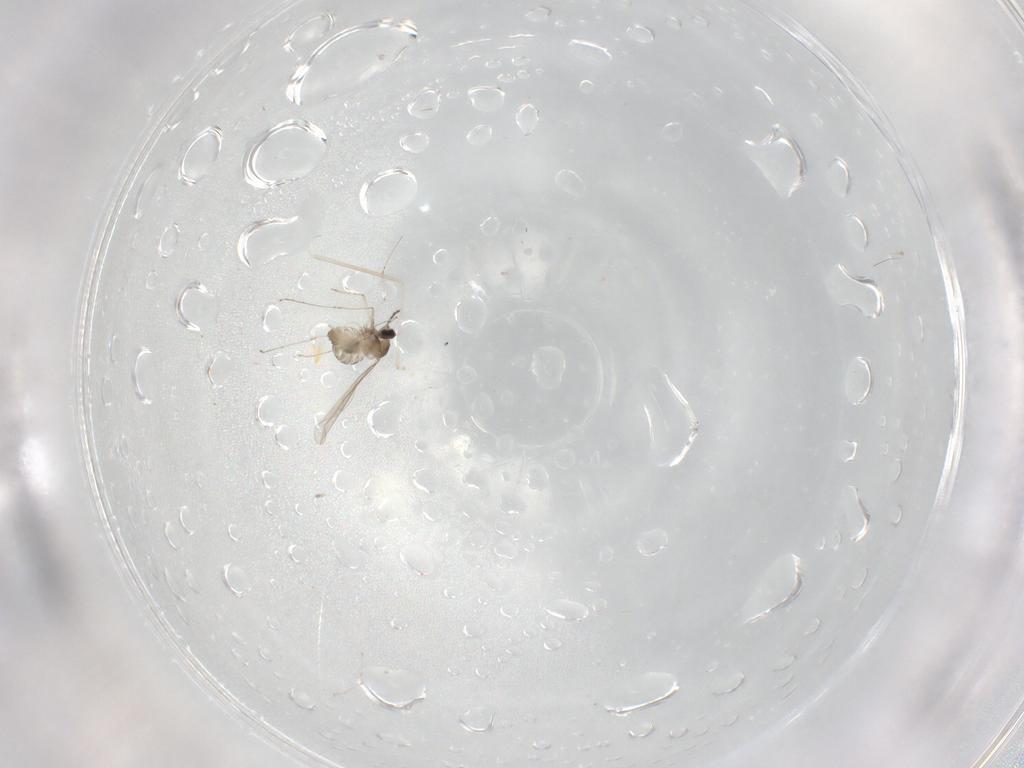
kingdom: Animalia
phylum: Arthropoda
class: Insecta
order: Diptera
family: Cecidomyiidae
